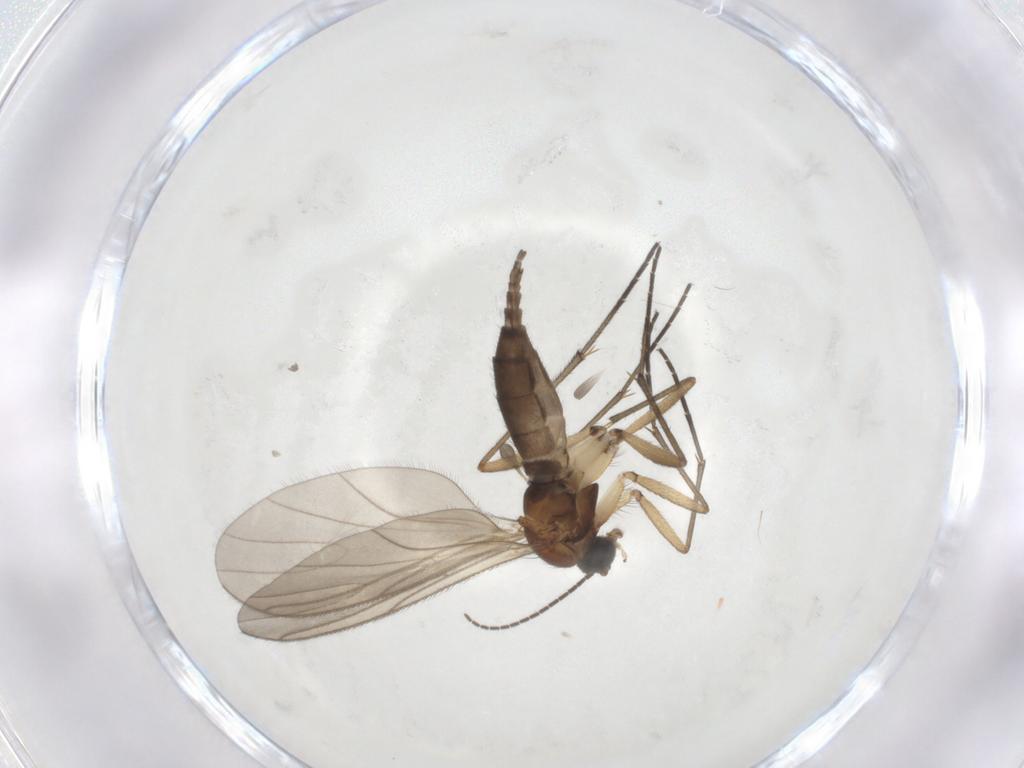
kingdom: Animalia
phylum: Arthropoda
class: Insecta
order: Diptera
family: Sciaridae
